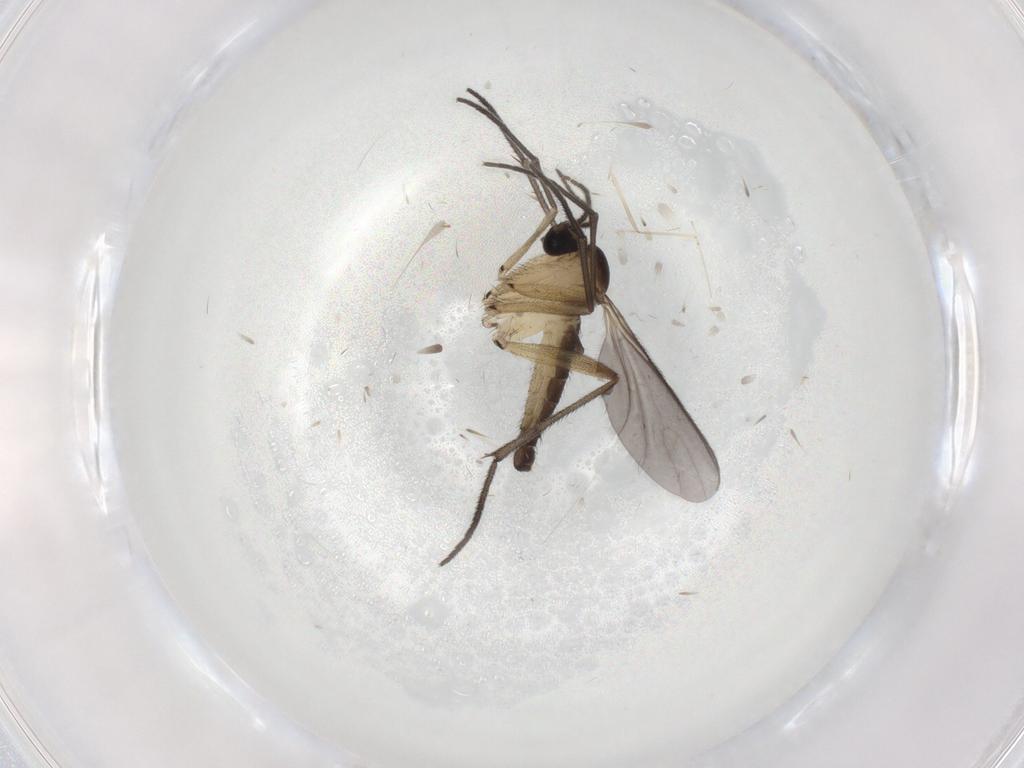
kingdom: Animalia
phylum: Arthropoda
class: Insecta
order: Diptera
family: Sciaridae
